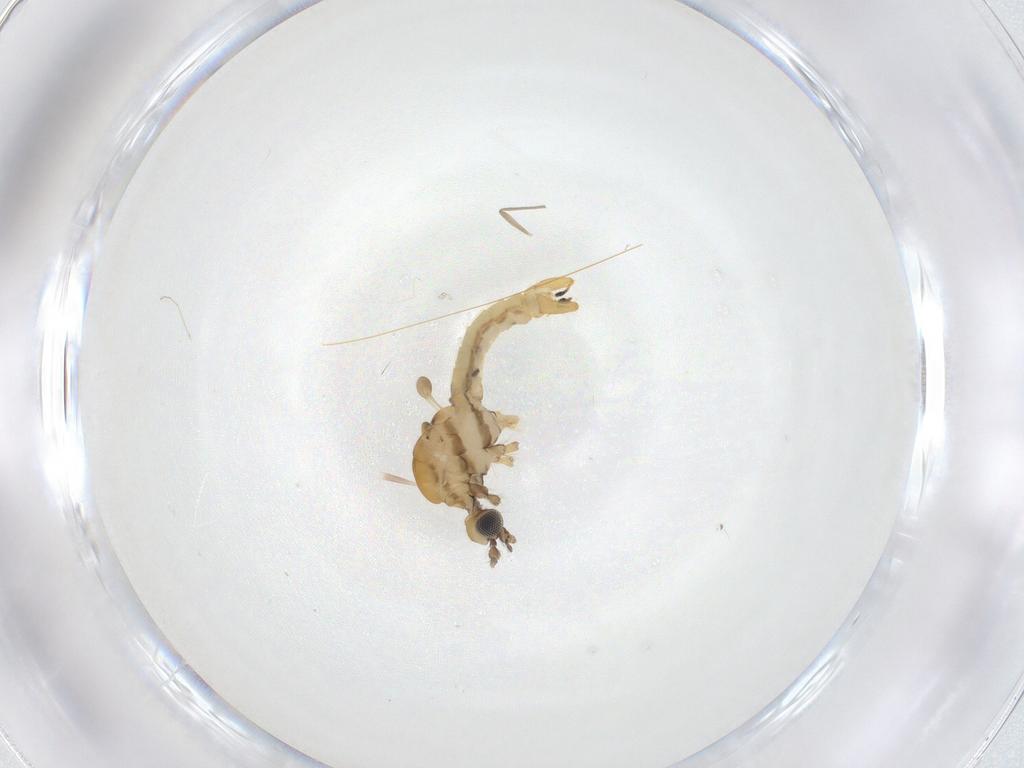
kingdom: Animalia
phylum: Arthropoda
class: Insecta
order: Diptera
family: Limoniidae
